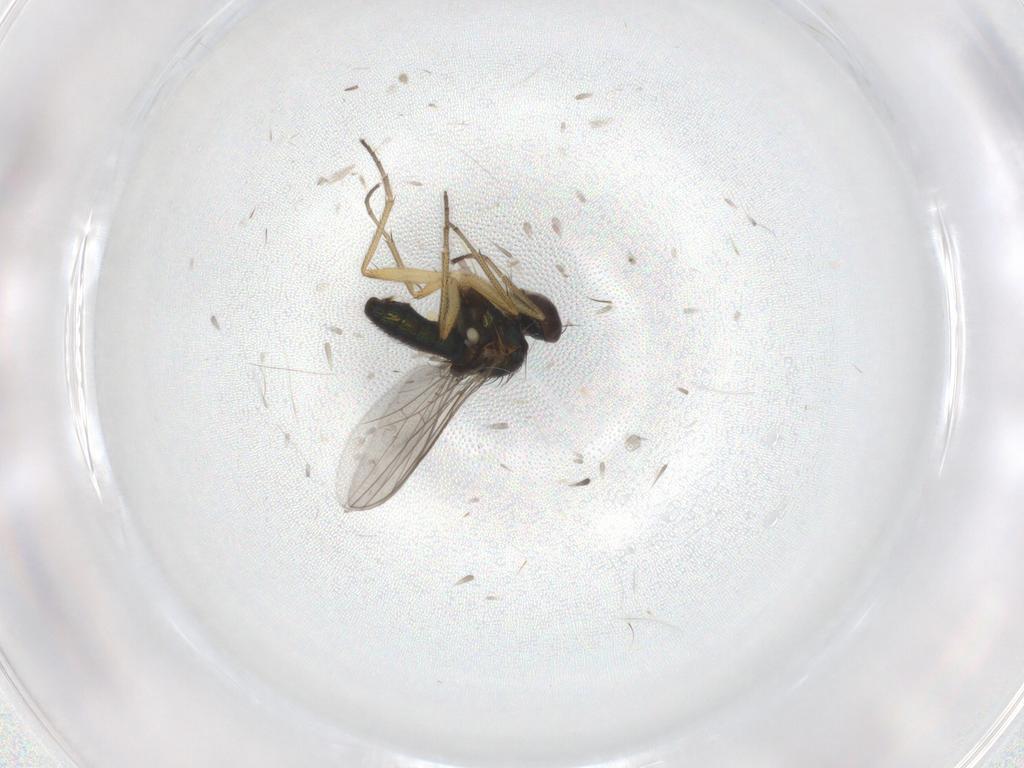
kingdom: Animalia
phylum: Arthropoda
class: Insecta
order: Diptera
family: Dolichopodidae
